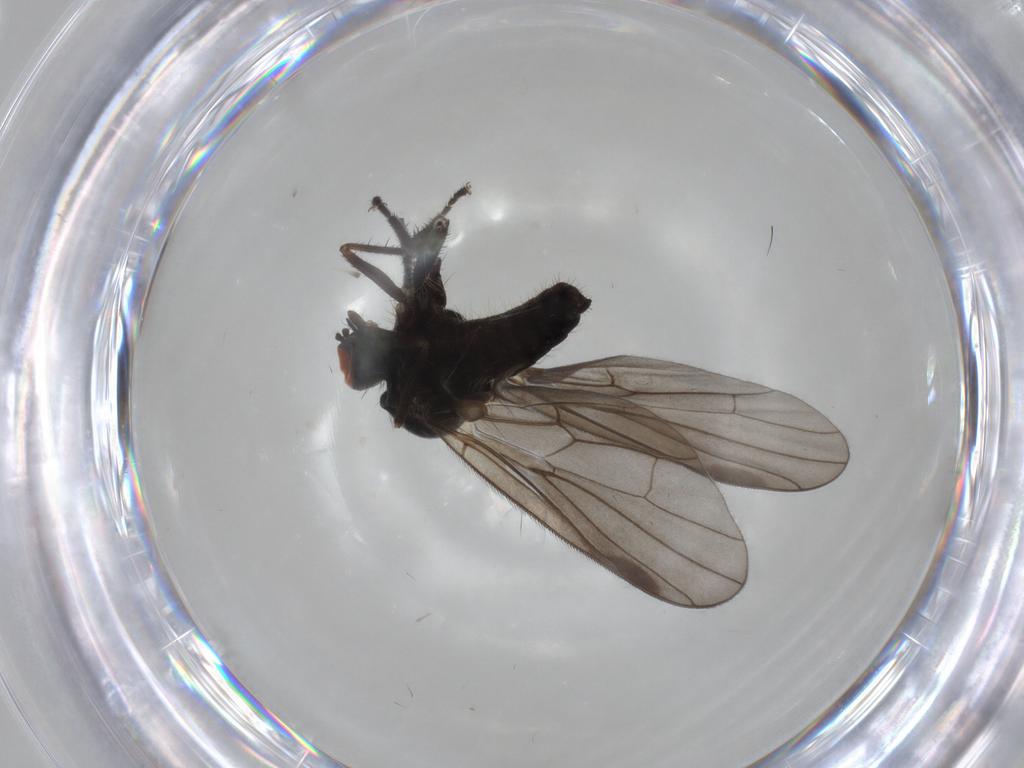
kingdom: Animalia
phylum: Arthropoda
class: Insecta
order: Diptera
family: Hybotidae
